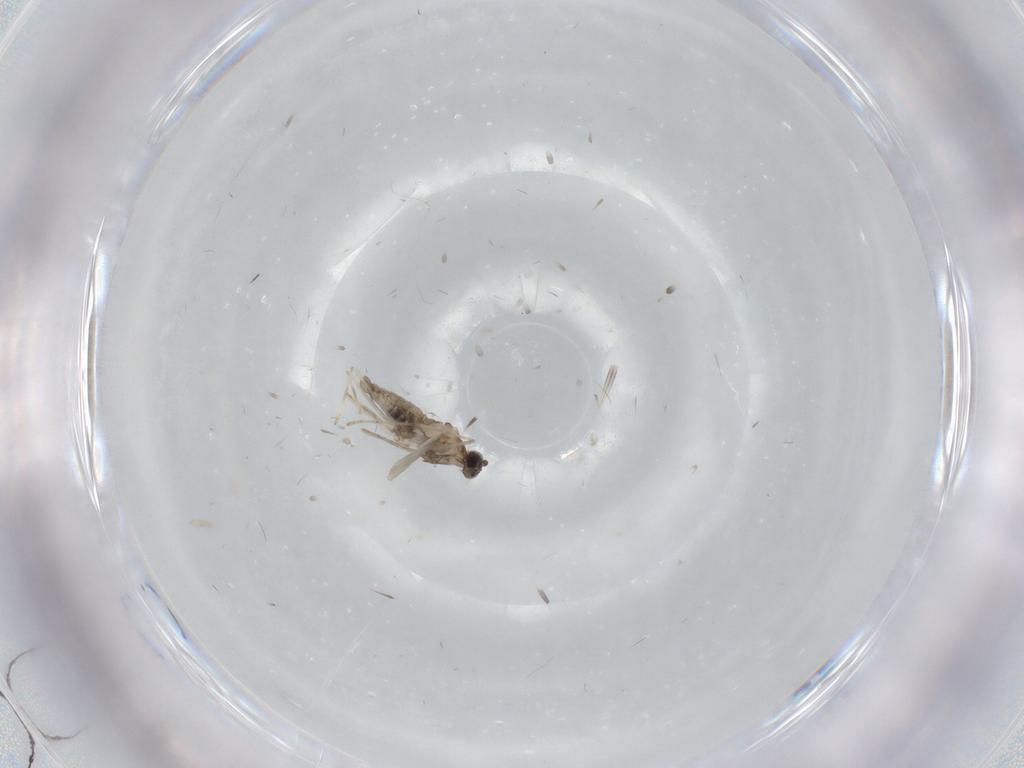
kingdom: Animalia
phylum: Arthropoda
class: Insecta
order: Diptera
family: Cecidomyiidae
